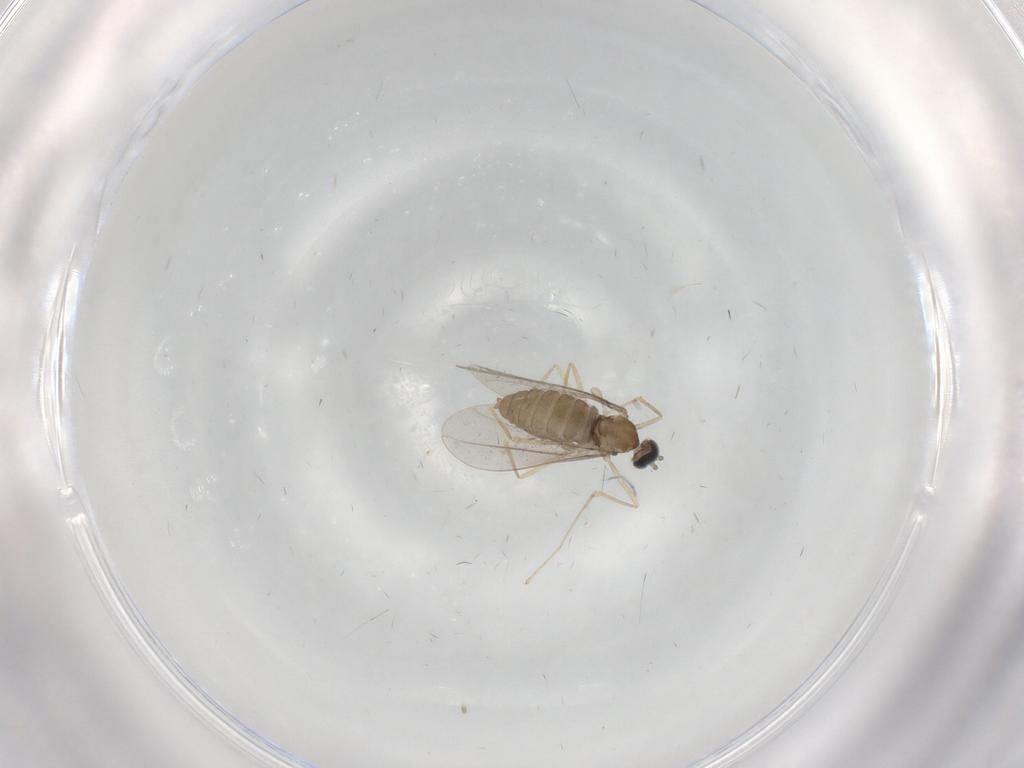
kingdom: Animalia
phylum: Arthropoda
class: Insecta
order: Diptera
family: Cecidomyiidae
